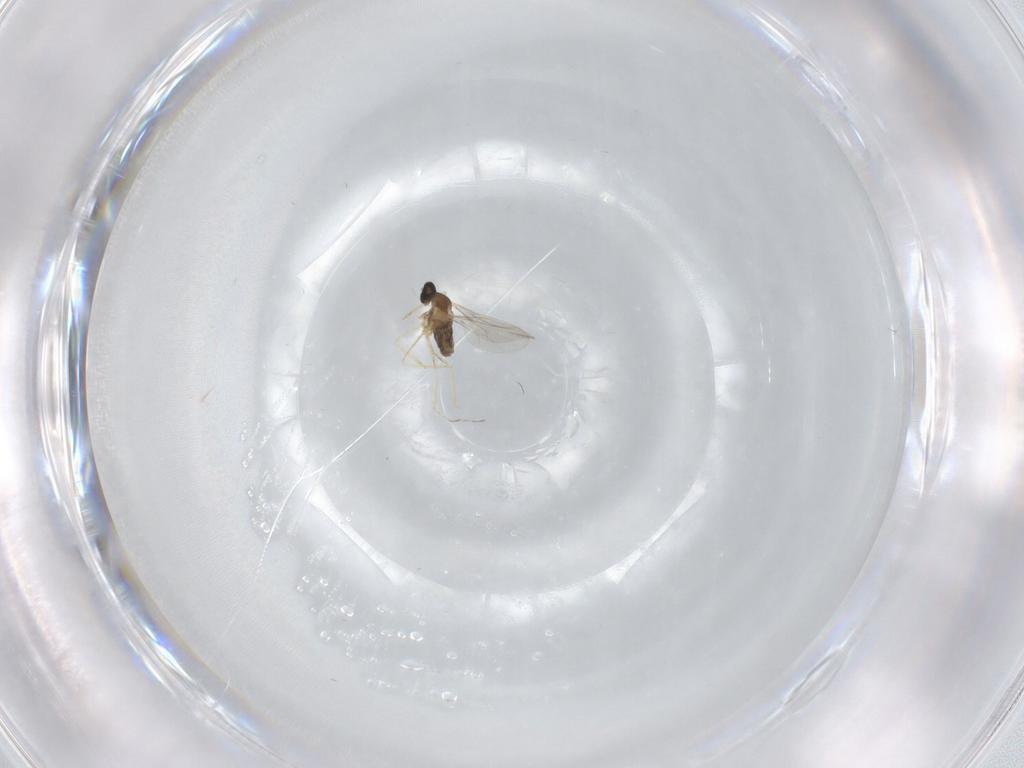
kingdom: Animalia
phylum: Arthropoda
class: Insecta
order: Diptera
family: Cecidomyiidae
